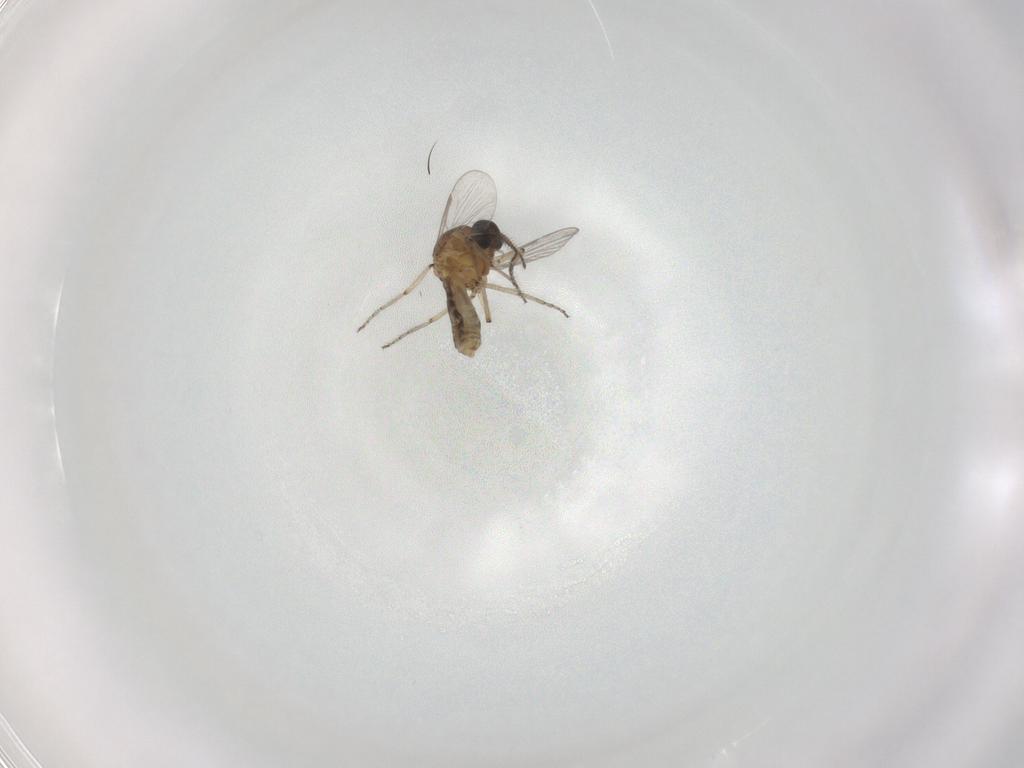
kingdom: Animalia
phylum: Arthropoda
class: Insecta
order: Diptera
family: Ceratopogonidae
